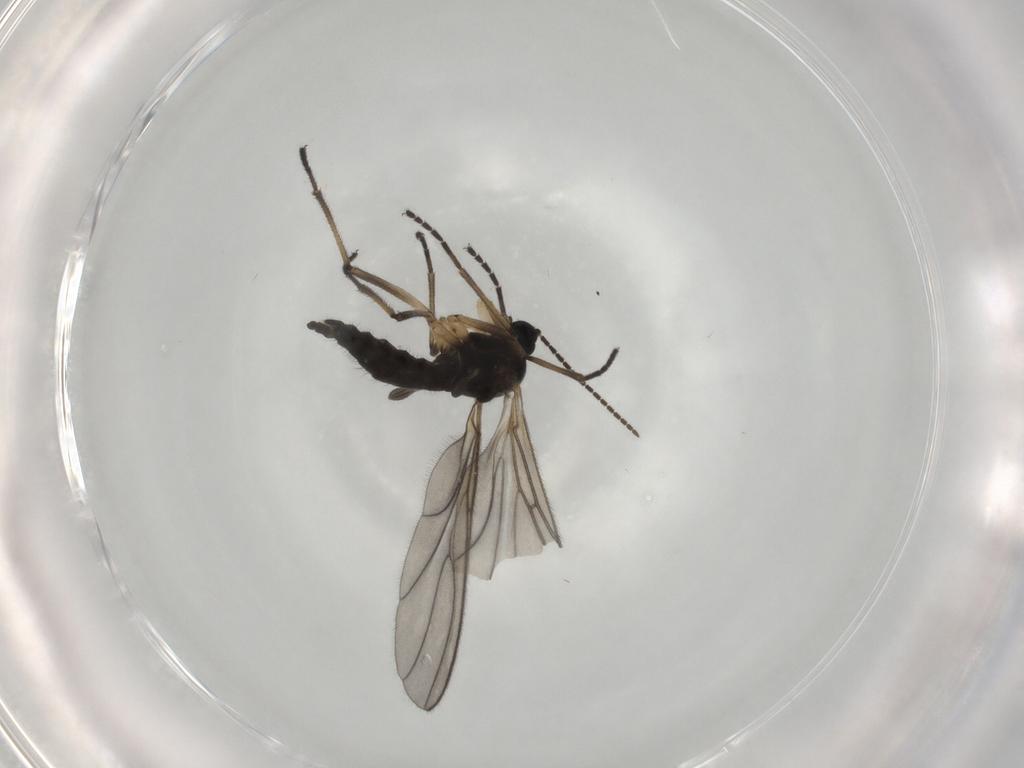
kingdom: Animalia
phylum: Arthropoda
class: Insecta
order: Diptera
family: Sciaridae
